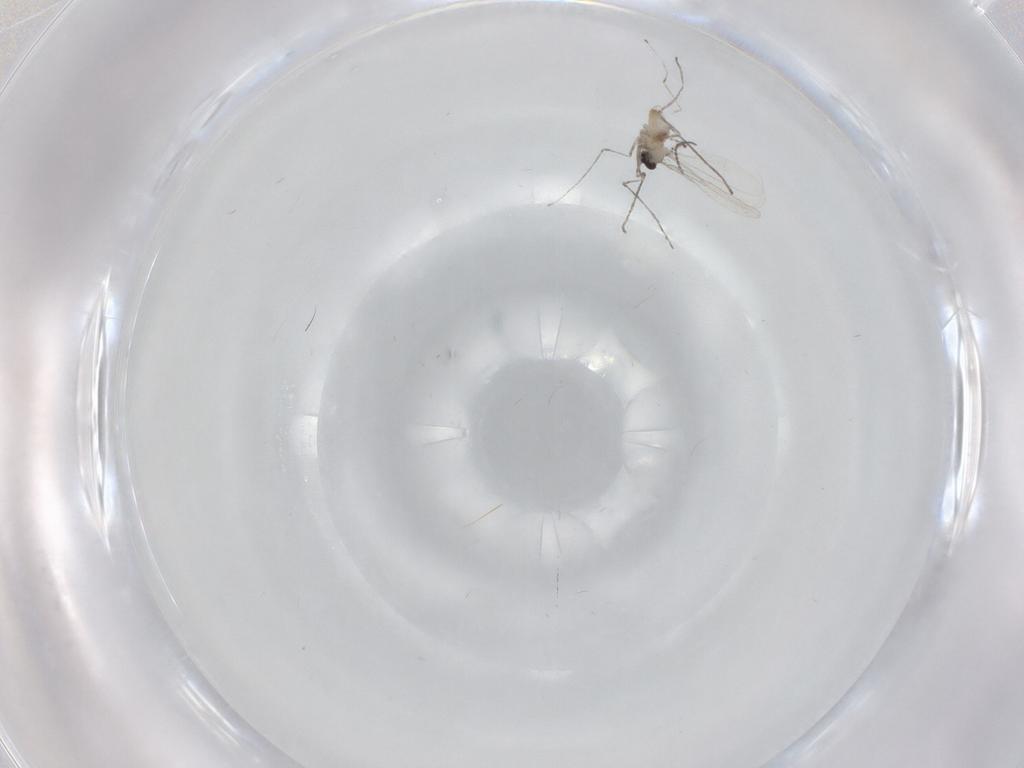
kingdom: Animalia
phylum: Arthropoda
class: Insecta
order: Diptera
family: Cecidomyiidae
